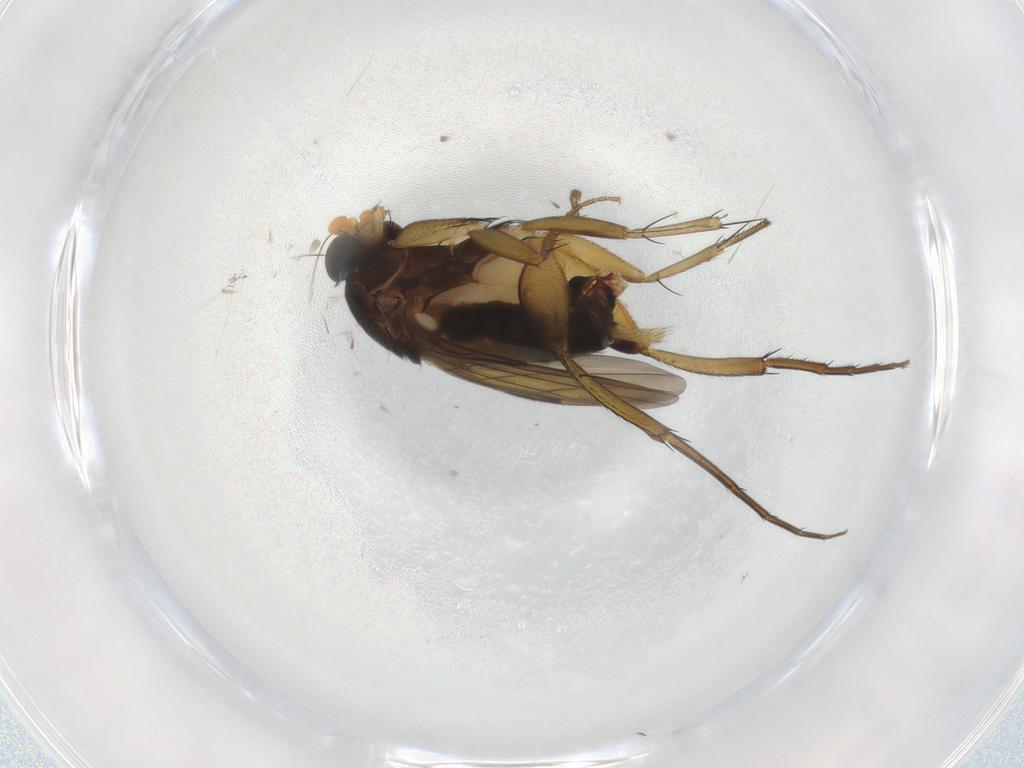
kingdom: Animalia
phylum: Arthropoda
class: Insecta
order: Diptera
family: Phoridae
